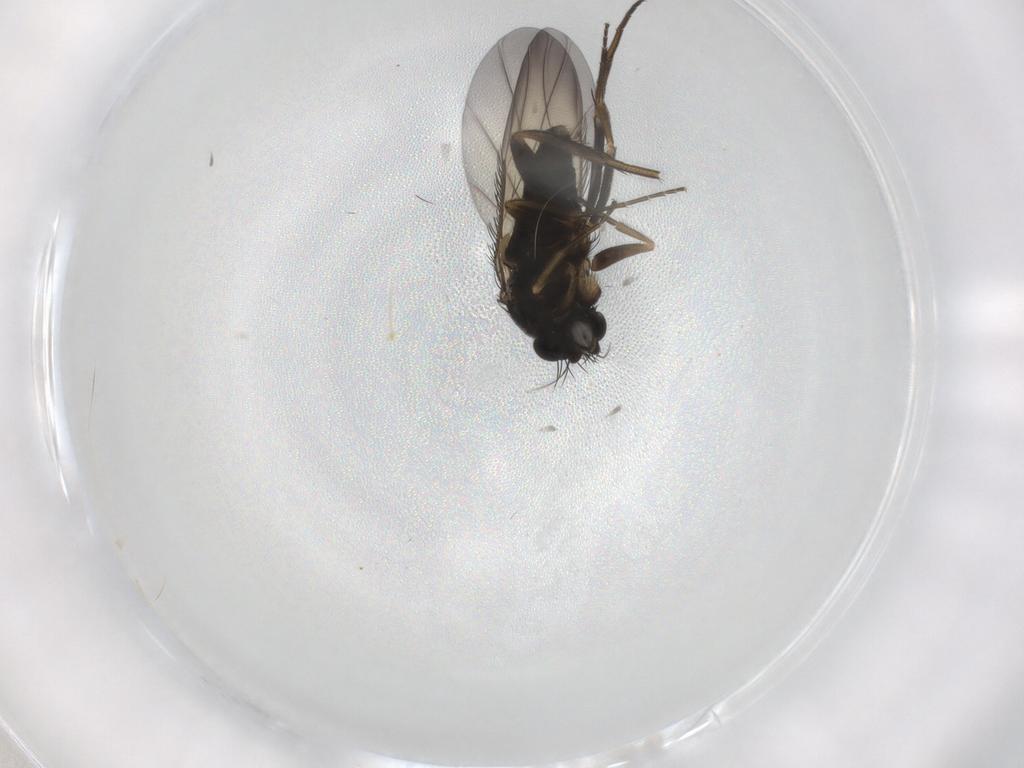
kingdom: Animalia
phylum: Arthropoda
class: Insecta
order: Diptera
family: Phoridae
